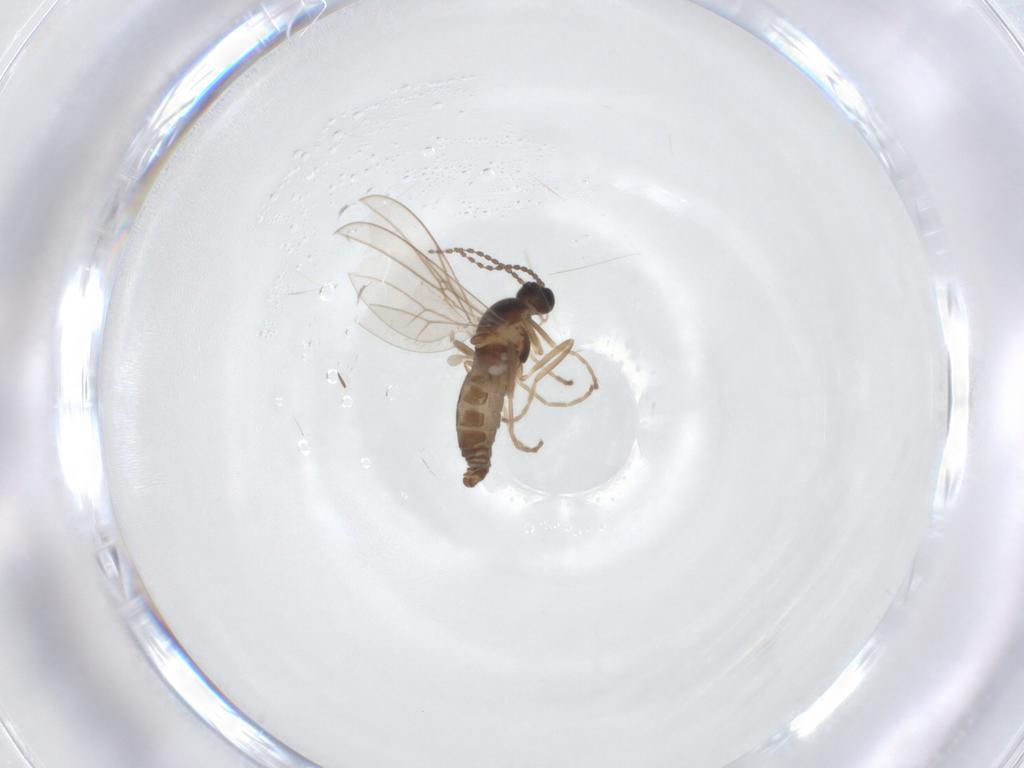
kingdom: Animalia
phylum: Arthropoda
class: Insecta
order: Diptera
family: Cecidomyiidae
